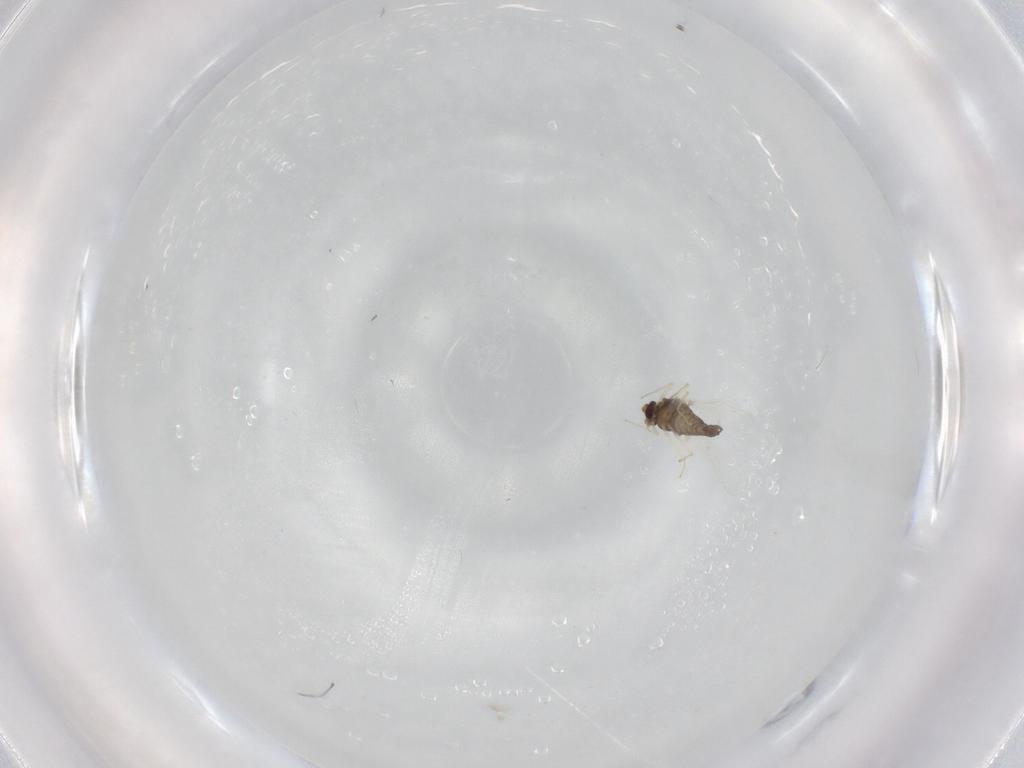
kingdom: Animalia
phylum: Arthropoda
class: Insecta
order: Diptera
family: Chironomidae
